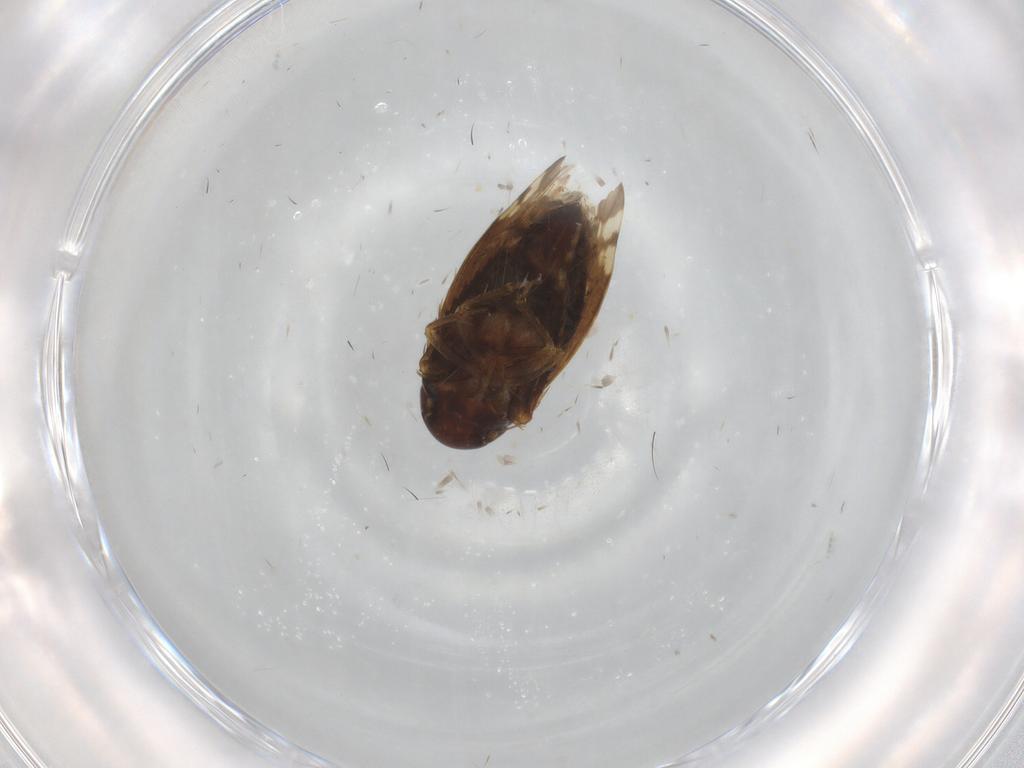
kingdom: Animalia
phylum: Arthropoda
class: Insecta
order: Hemiptera
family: Cicadellidae
